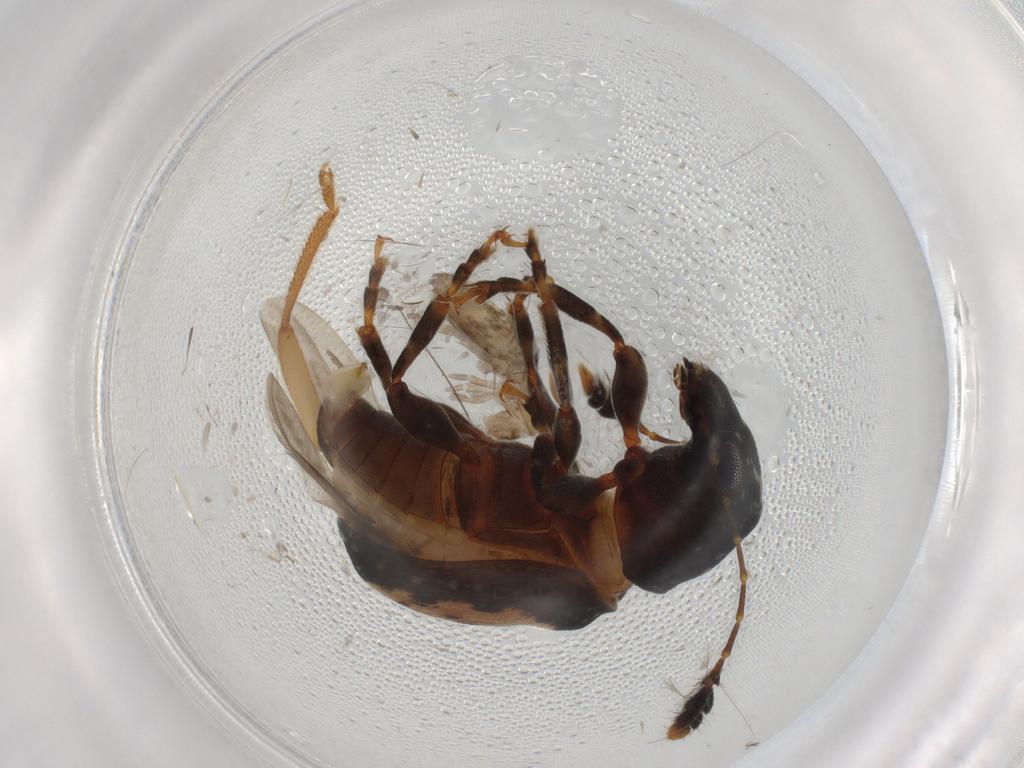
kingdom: Animalia
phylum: Arthropoda
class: Insecta
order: Coleoptera
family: Anthribidae
